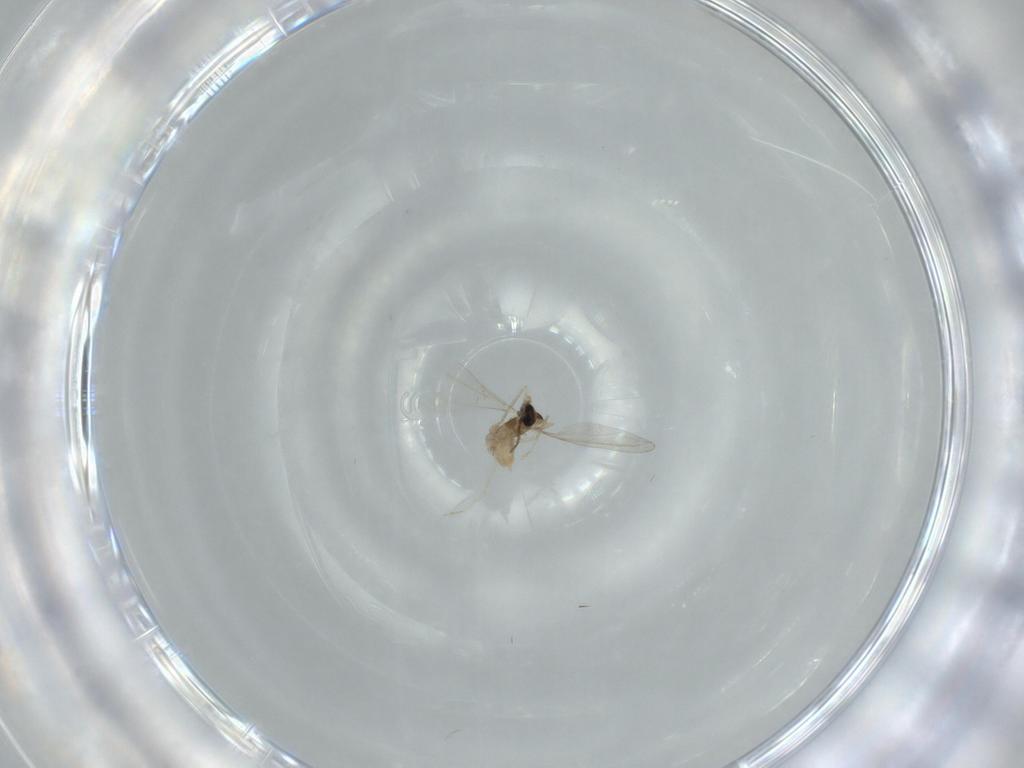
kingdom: Animalia
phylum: Arthropoda
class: Insecta
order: Diptera
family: Cecidomyiidae
